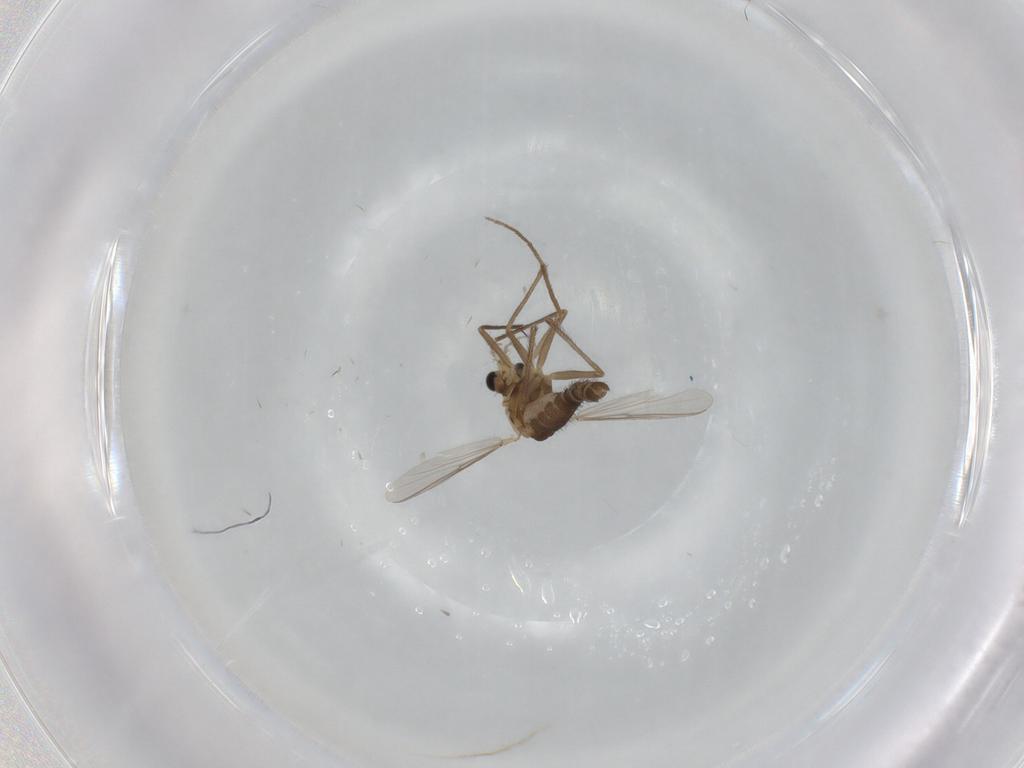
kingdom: Animalia
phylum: Arthropoda
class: Insecta
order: Diptera
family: Chironomidae
